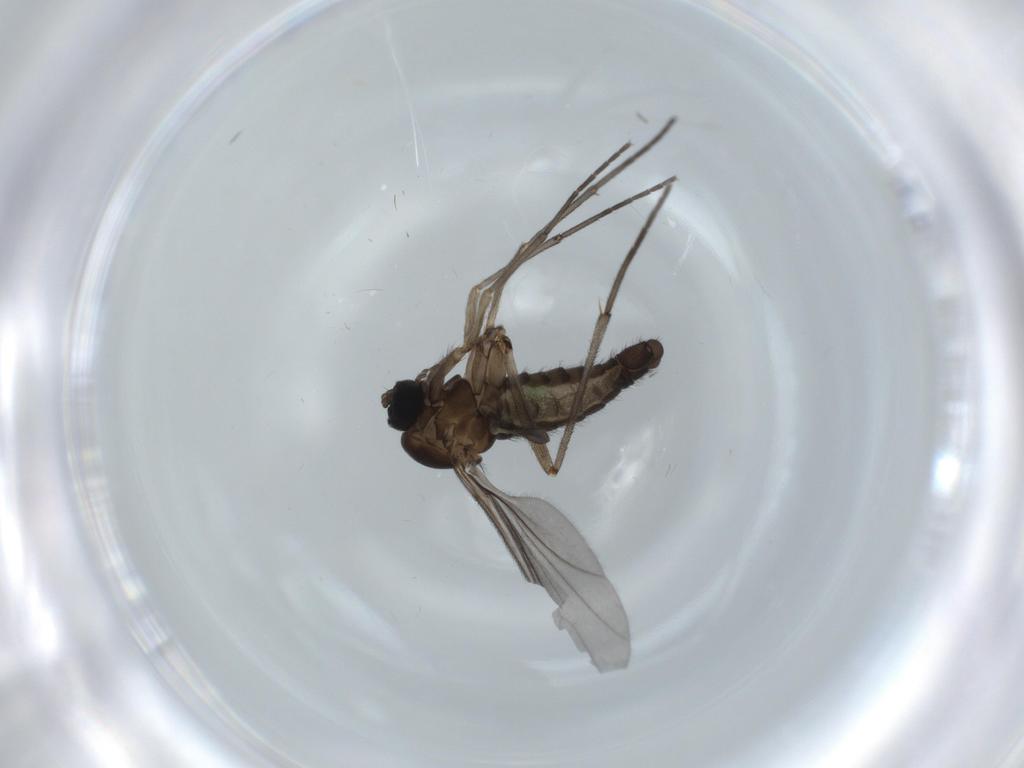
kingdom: Animalia
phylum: Arthropoda
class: Insecta
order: Diptera
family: Sciaridae
